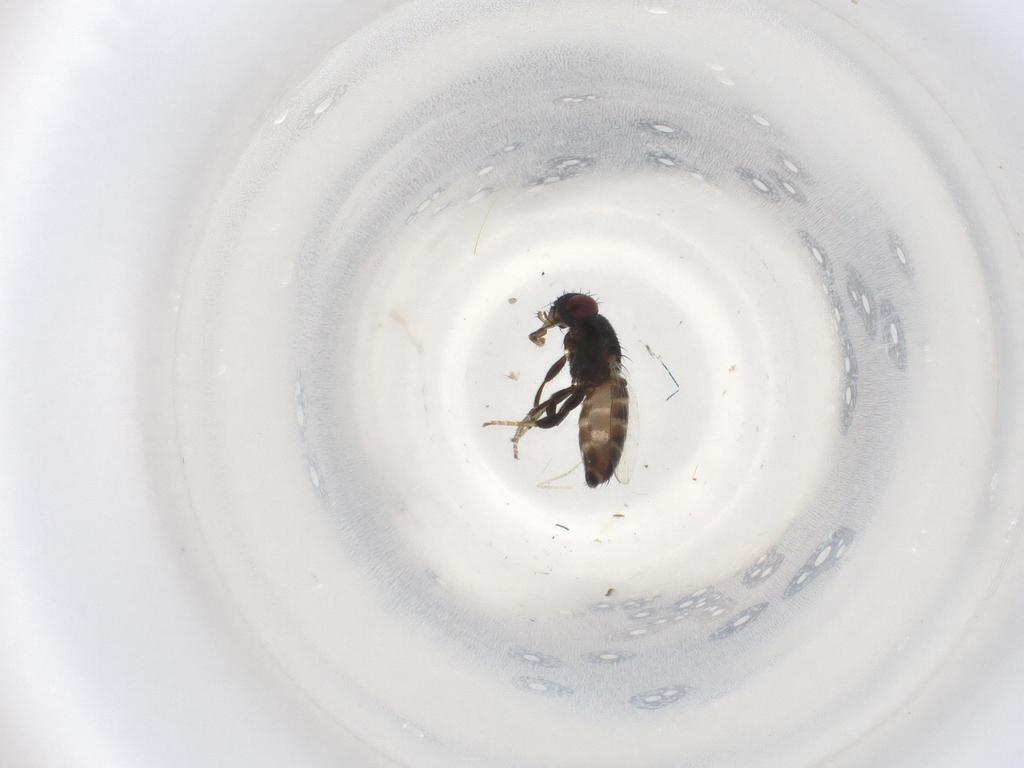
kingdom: Animalia
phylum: Arthropoda
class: Insecta
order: Diptera
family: Cecidomyiidae
